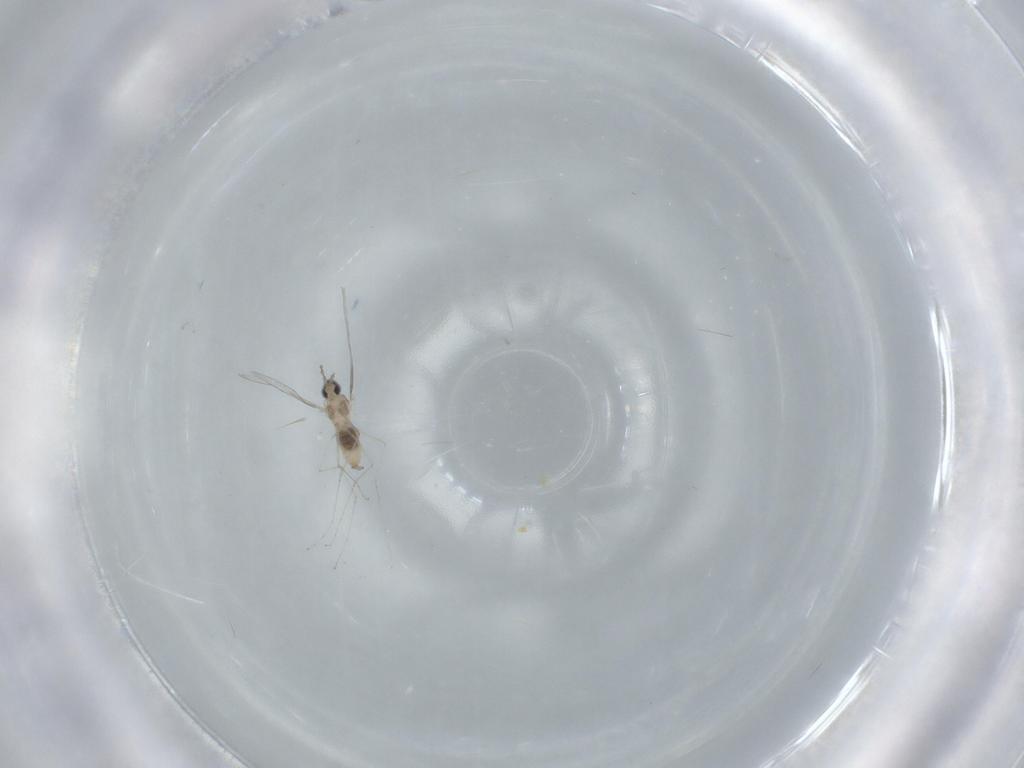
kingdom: Animalia
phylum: Arthropoda
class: Insecta
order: Diptera
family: Cecidomyiidae
